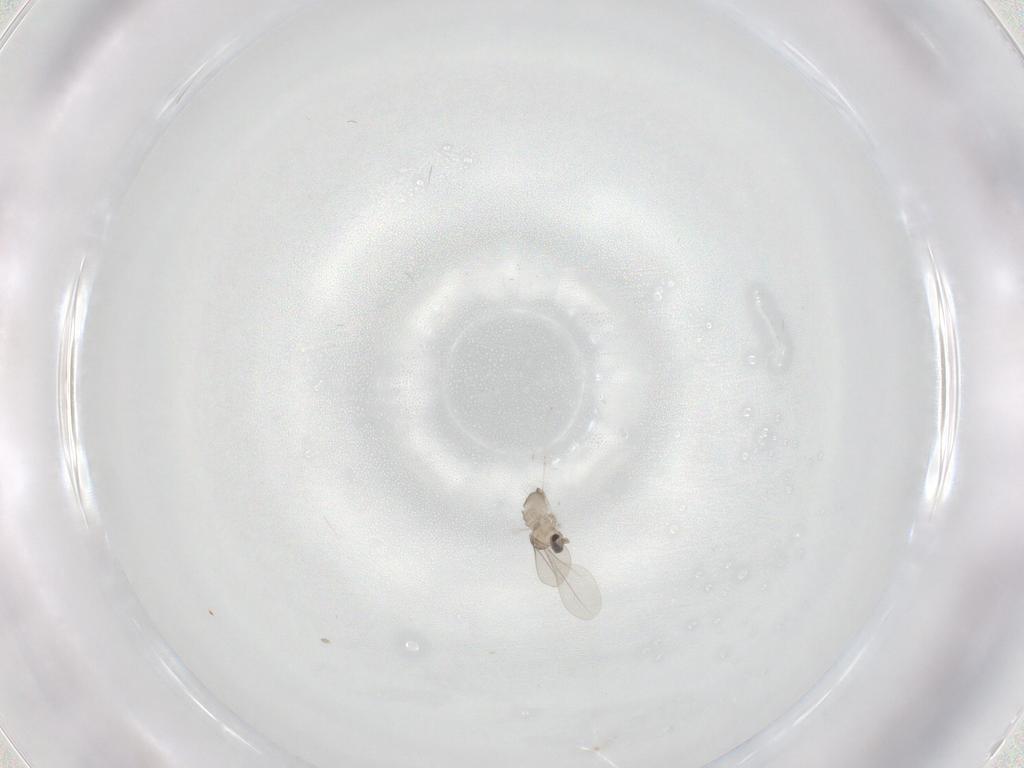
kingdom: Animalia
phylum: Arthropoda
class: Insecta
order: Diptera
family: Cecidomyiidae
